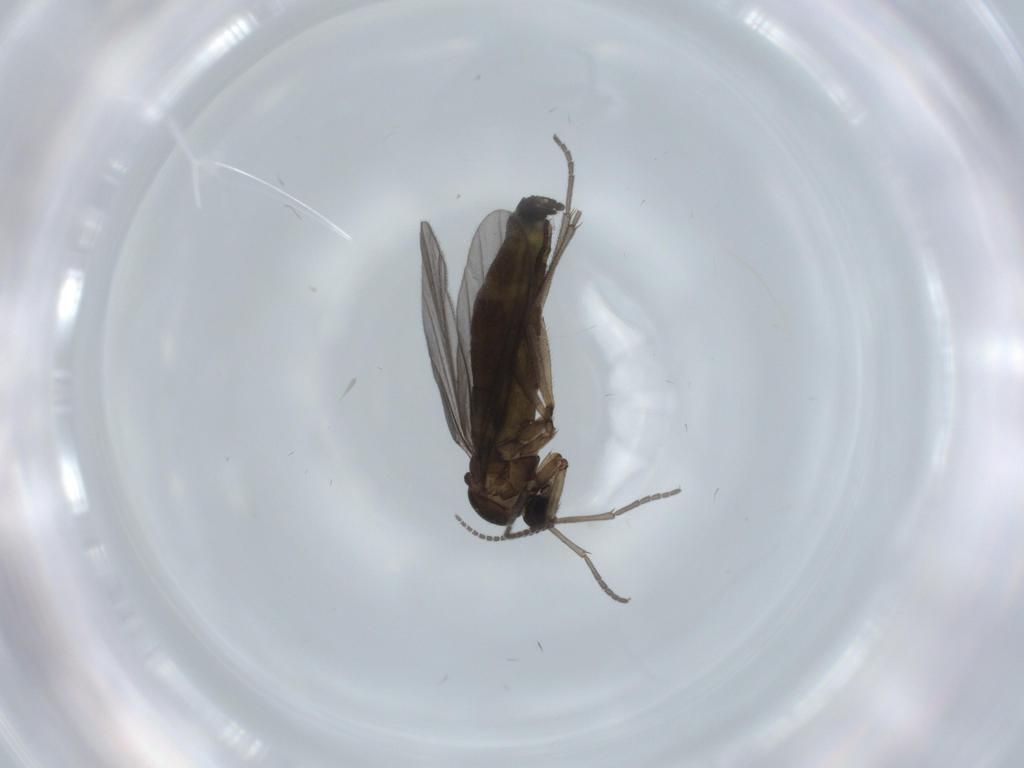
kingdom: Animalia
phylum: Arthropoda
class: Insecta
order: Diptera
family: Sciaridae
